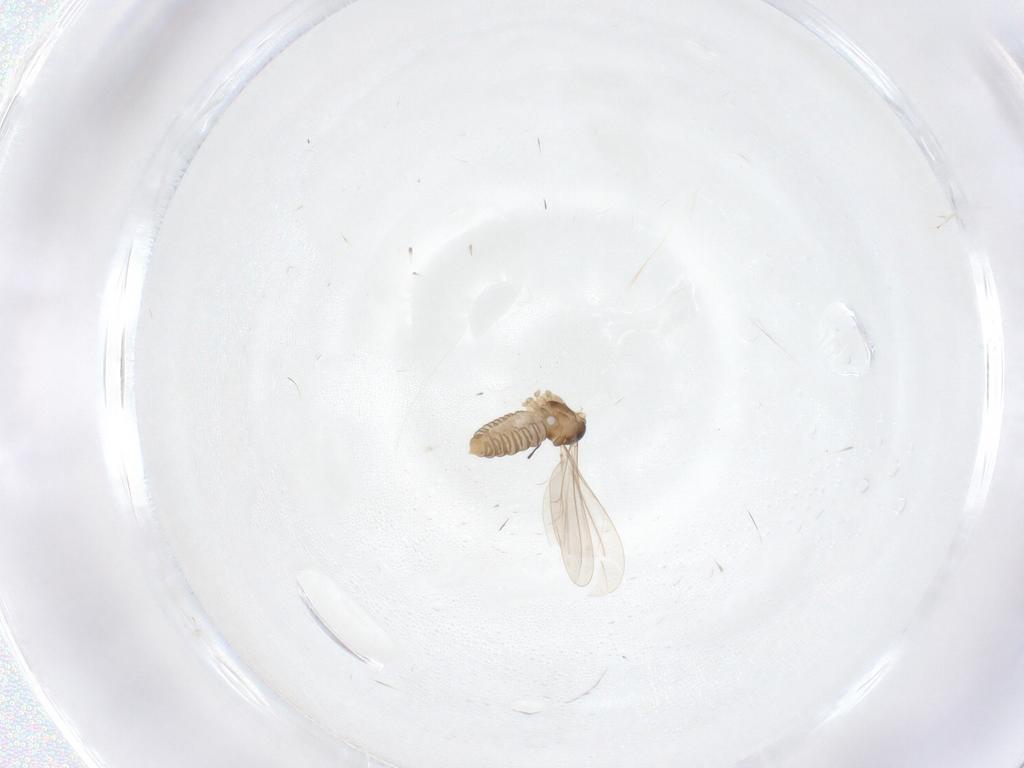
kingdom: Animalia
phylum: Arthropoda
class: Insecta
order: Diptera
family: Cecidomyiidae
